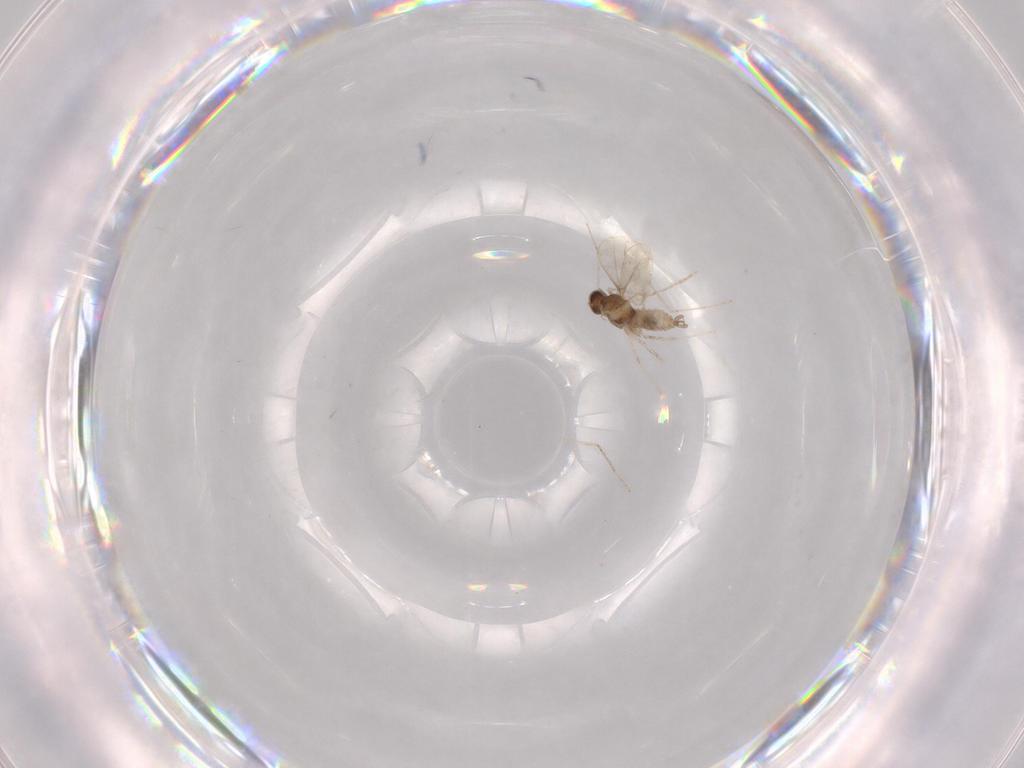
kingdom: Animalia
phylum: Arthropoda
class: Insecta
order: Diptera
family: Cecidomyiidae
